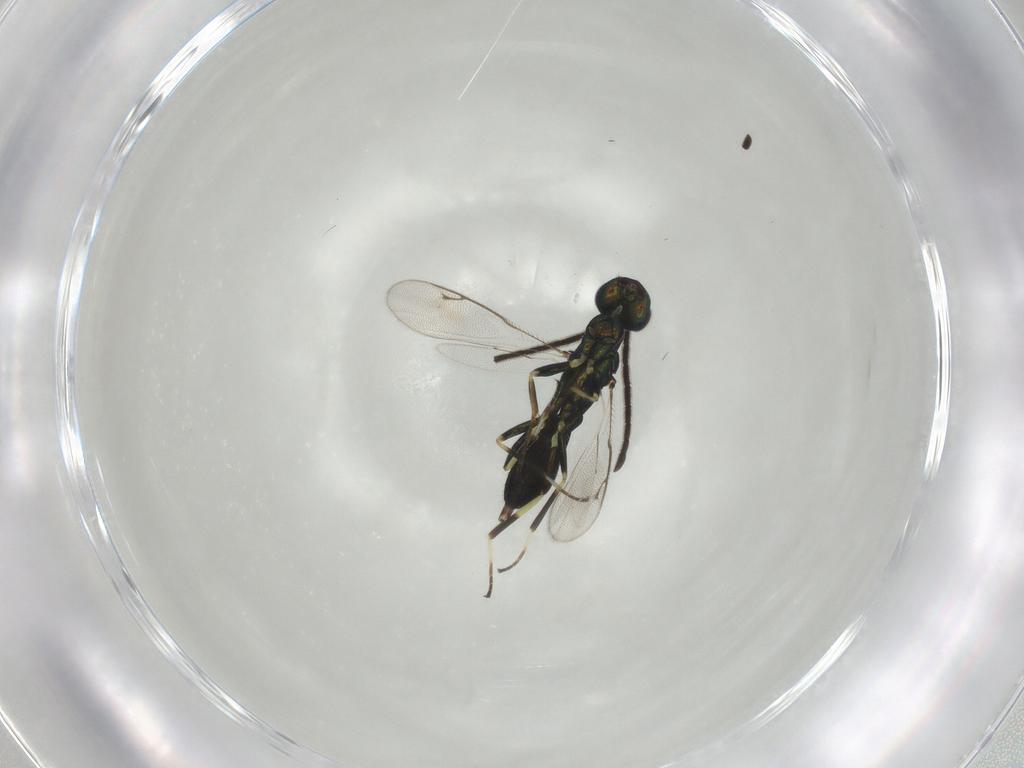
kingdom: Animalia
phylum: Arthropoda
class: Insecta
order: Hymenoptera
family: Eupelmidae
